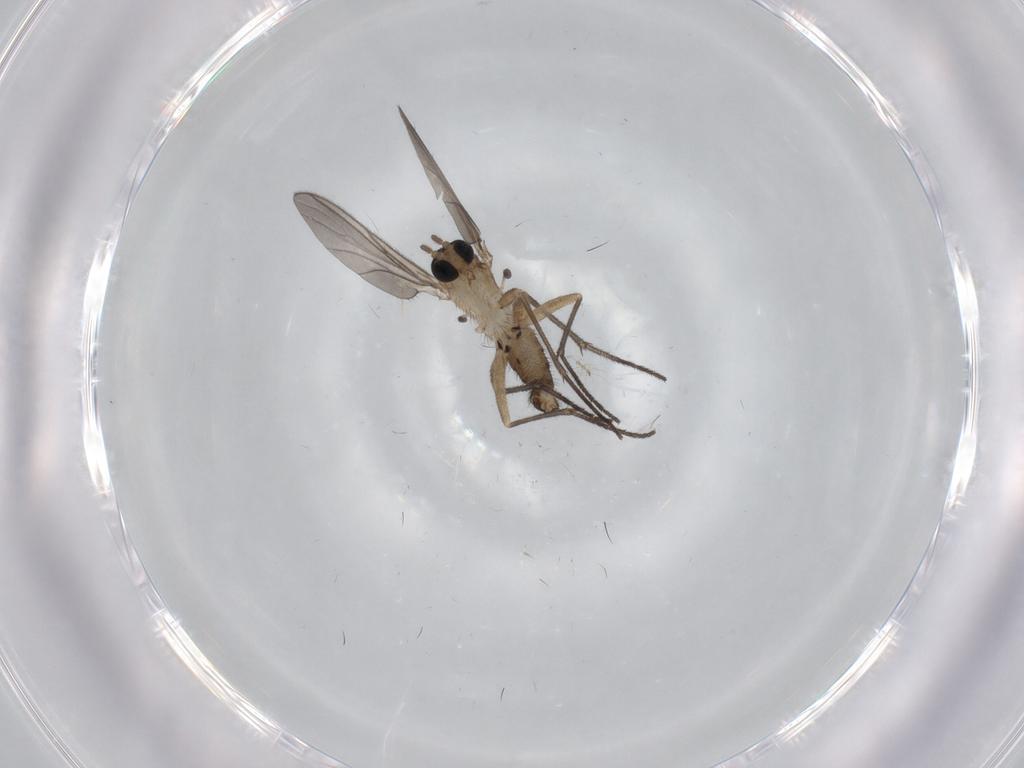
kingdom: Animalia
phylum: Arthropoda
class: Insecta
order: Diptera
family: Sciaridae
